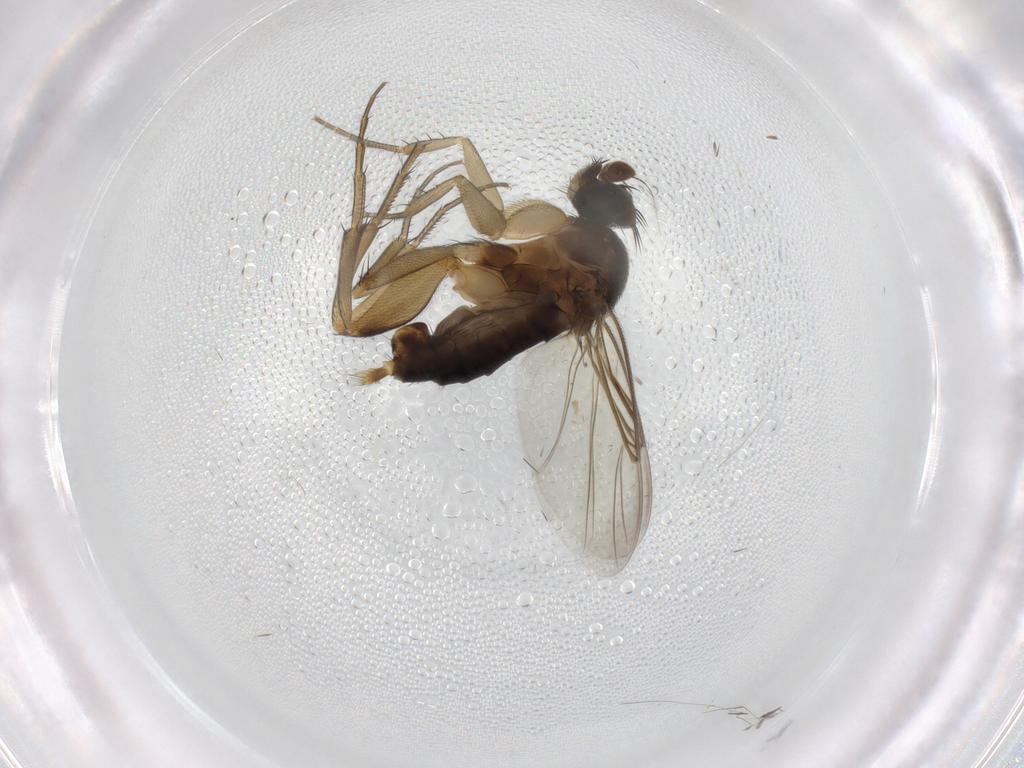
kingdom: Animalia
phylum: Arthropoda
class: Insecta
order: Diptera
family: Phoridae
